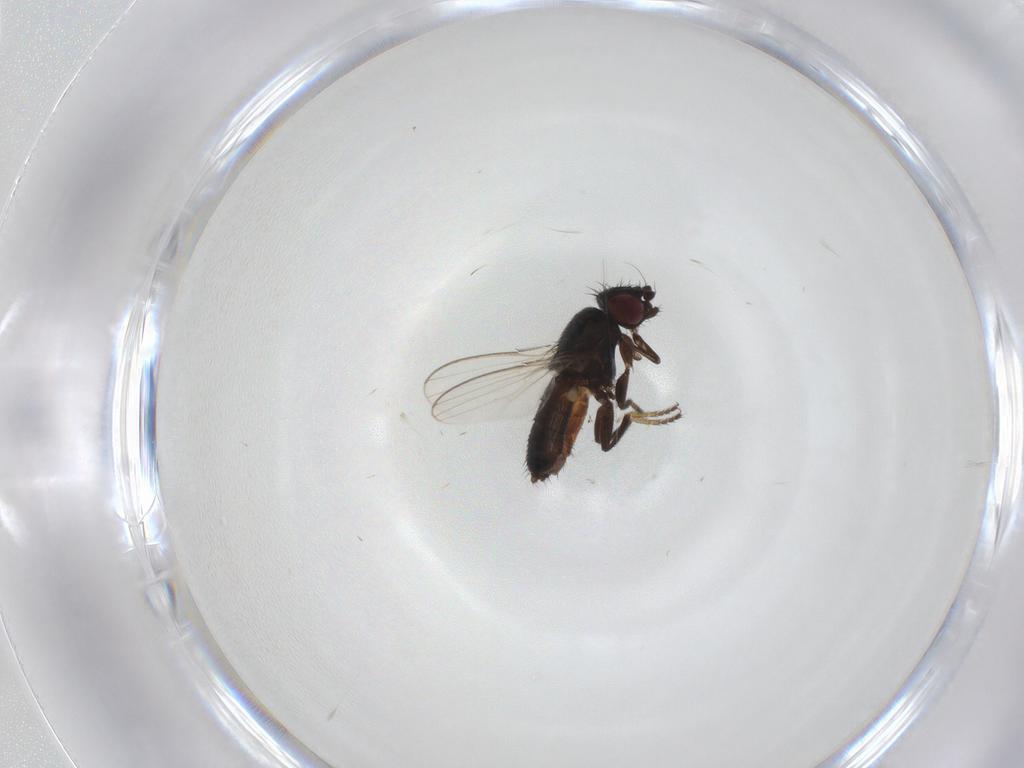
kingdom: Animalia
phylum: Arthropoda
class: Insecta
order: Diptera
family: Milichiidae
